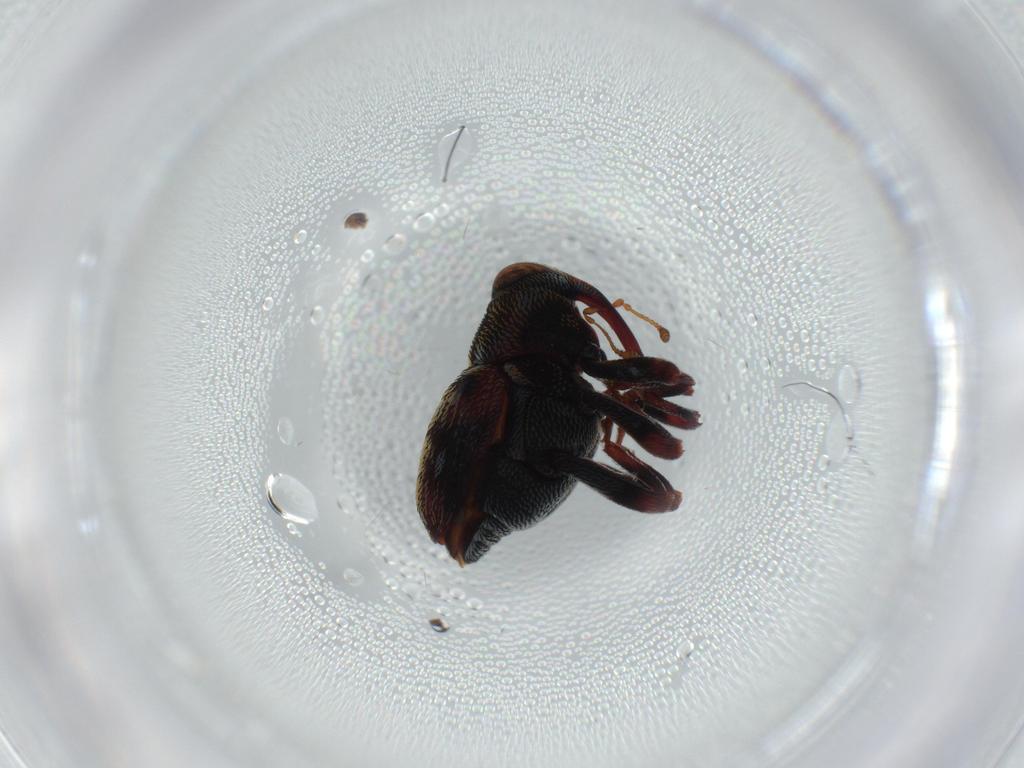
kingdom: Animalia
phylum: Arthropoda
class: Insecta
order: Coleoptera
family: Curculionidae
